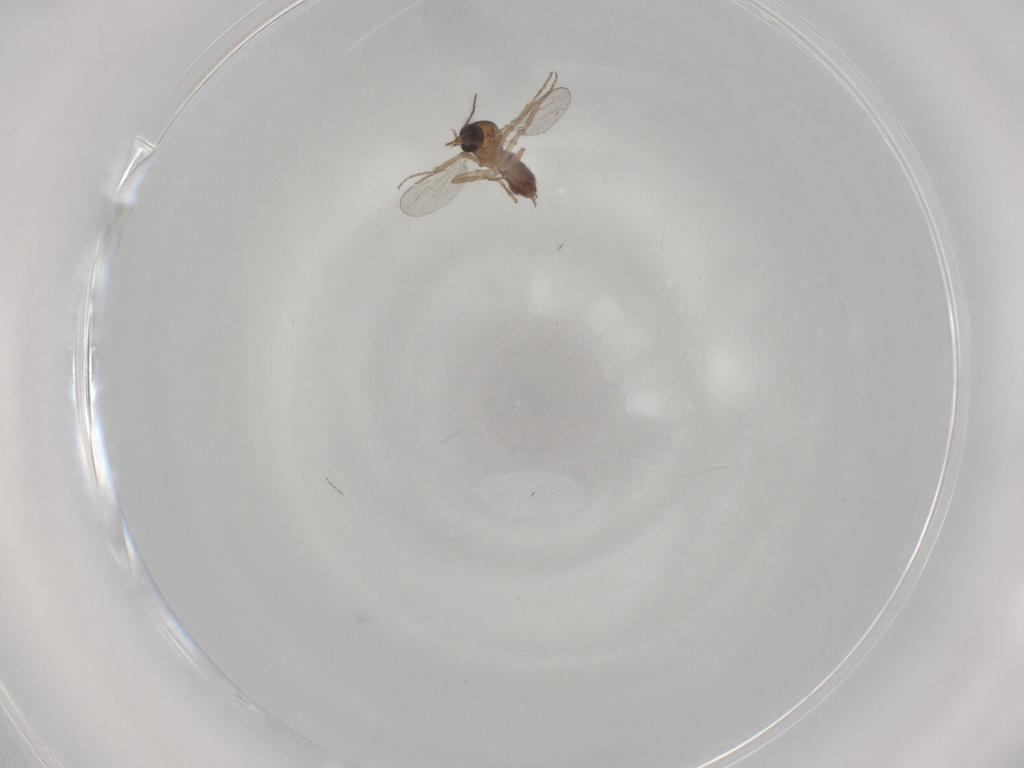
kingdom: Animalia
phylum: Arthropoda
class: Insecta
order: Diptera
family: Ceratopogonidae
